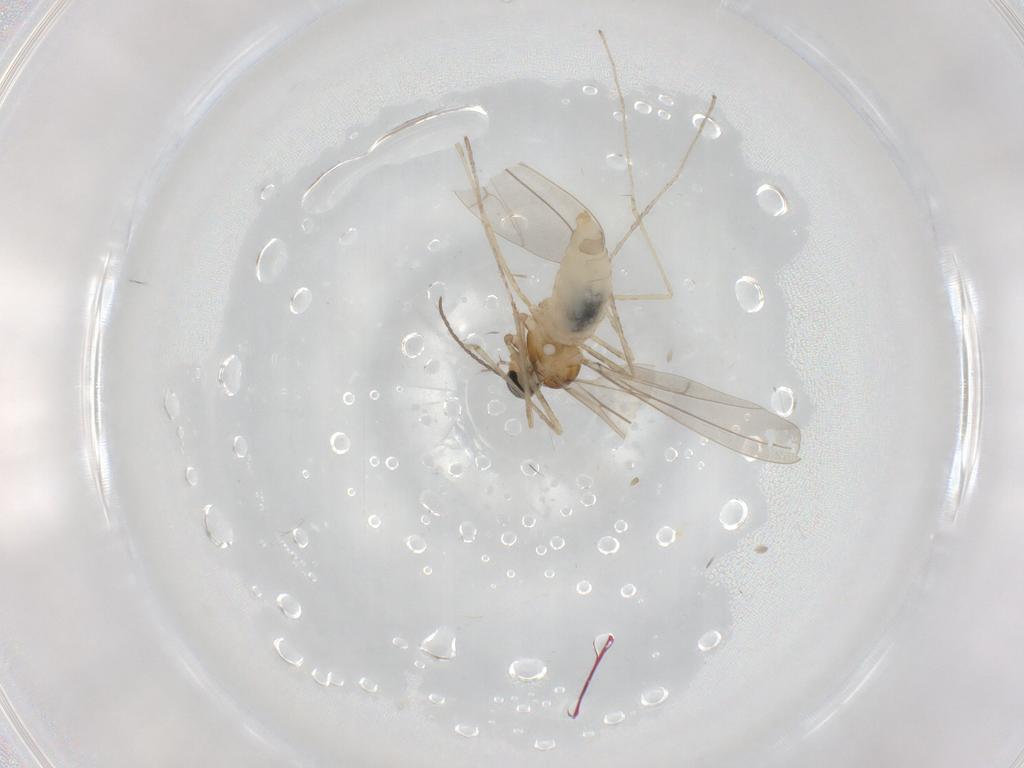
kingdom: Animalia
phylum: Arthropoda
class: Insecta
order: Diptera
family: Cecidomyiidae
